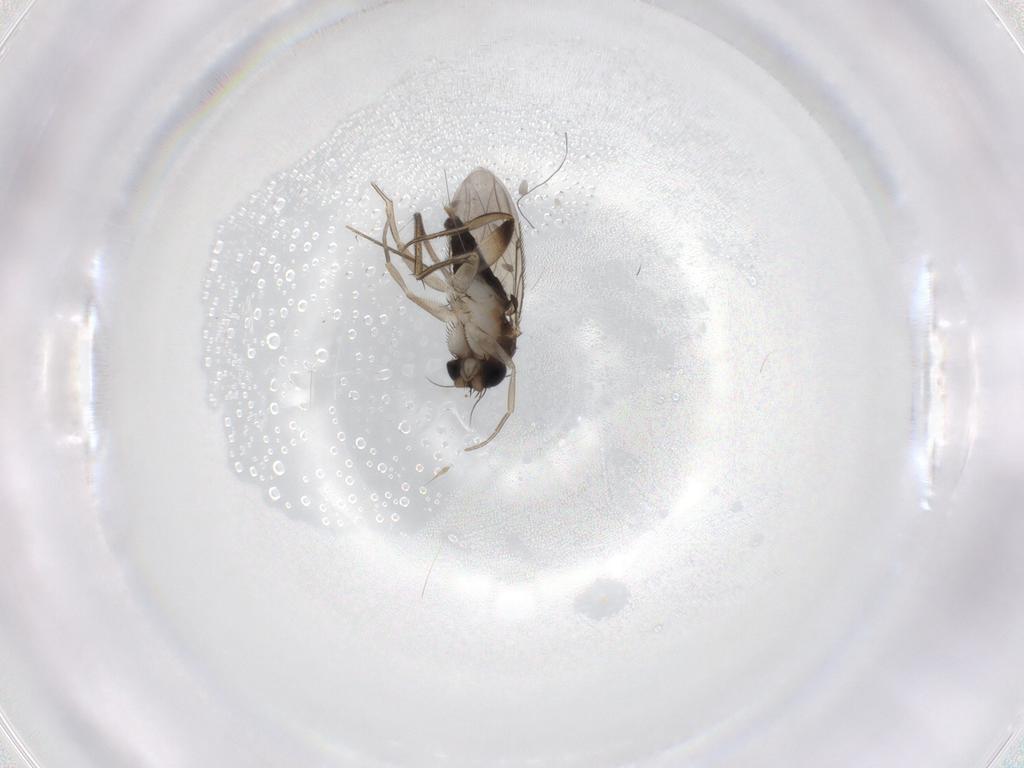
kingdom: Animalia
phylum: Arthropoda
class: Insecta
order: Diptera
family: Phoridae
